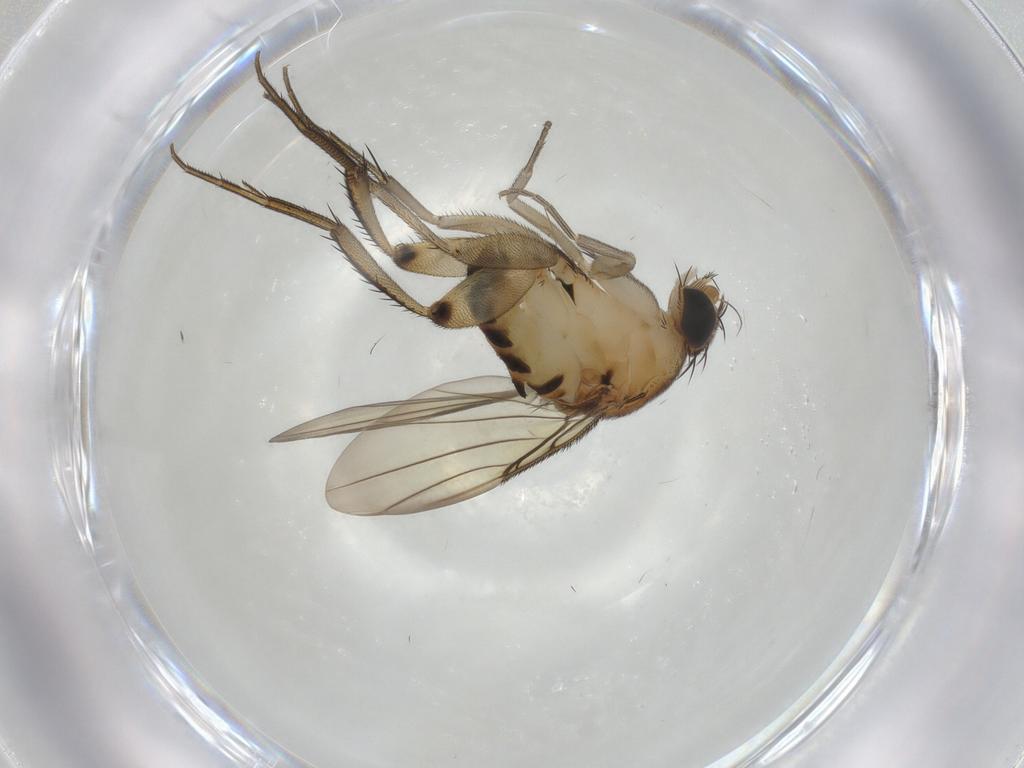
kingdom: Animalia
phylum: Arthropoda
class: Insecta
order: Diptera
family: Phoridae
